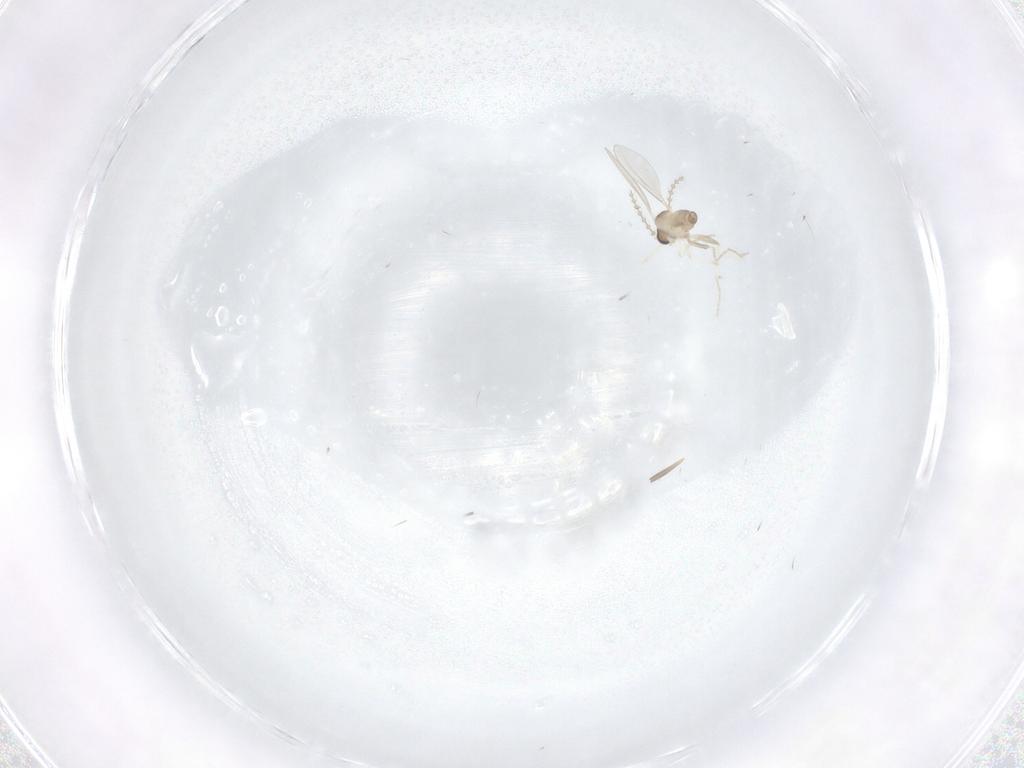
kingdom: Animalia
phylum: Arthropoda
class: Insecta
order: Diptera
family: Cecidomyiidae
